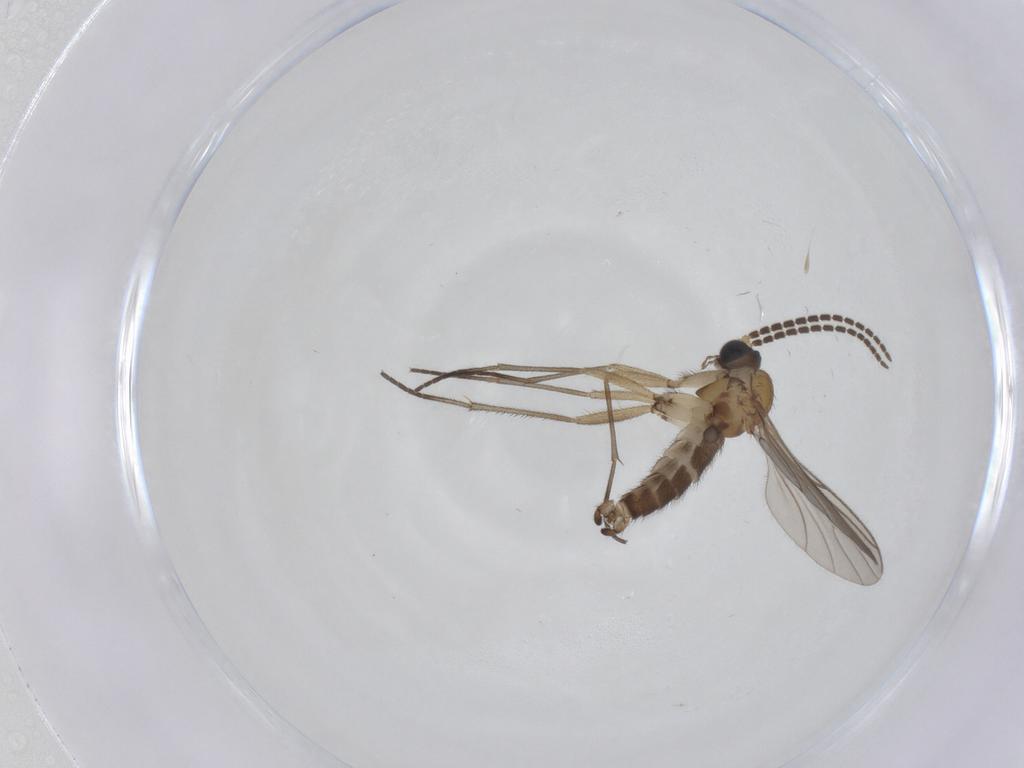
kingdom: Animalia
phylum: Arthropoda
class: Insecta
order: Diptera
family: Sciaridae
